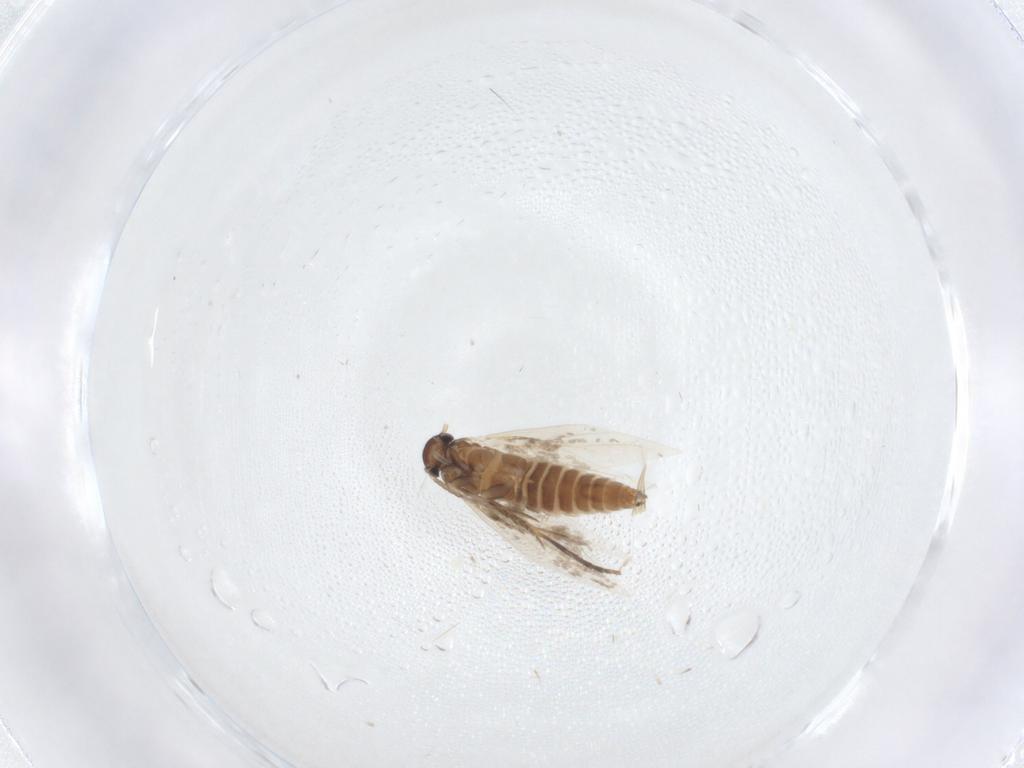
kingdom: Animalia
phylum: Arthropoda
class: Insecta
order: Lepidoptera
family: Heliozelidae
